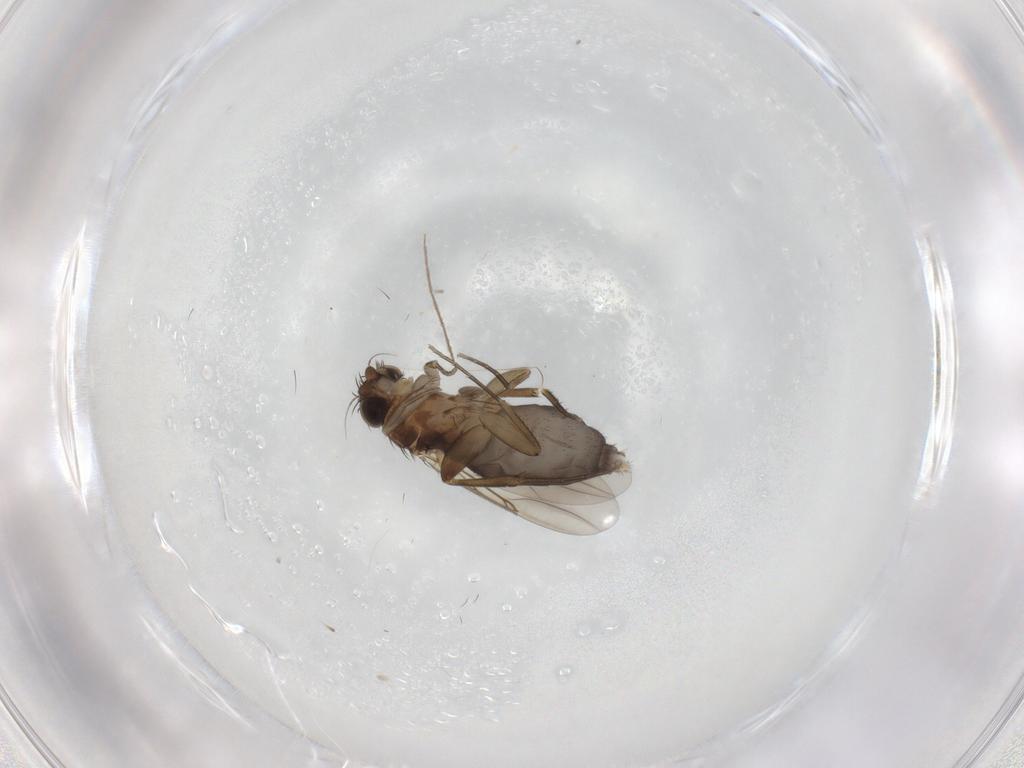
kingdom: Animalia
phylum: Arthropoda
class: Insecta
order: Diptera
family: Phoridae
